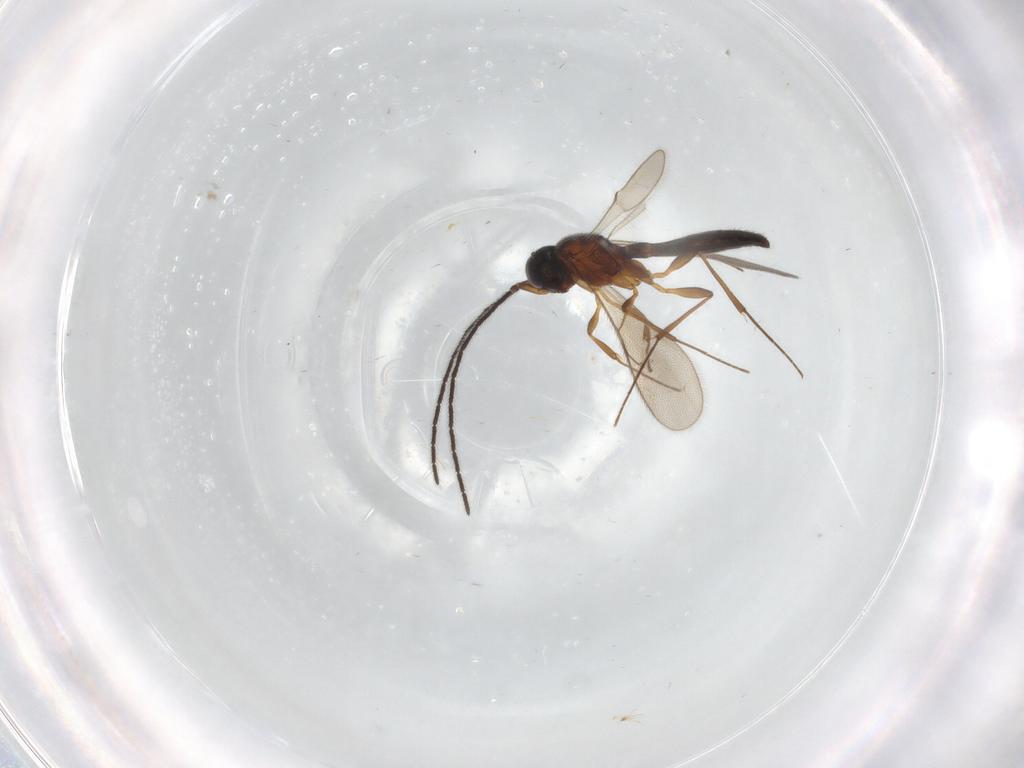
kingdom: Animalia
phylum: Arthropoda
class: Insecta
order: Hymenoptera
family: Scelionidae
